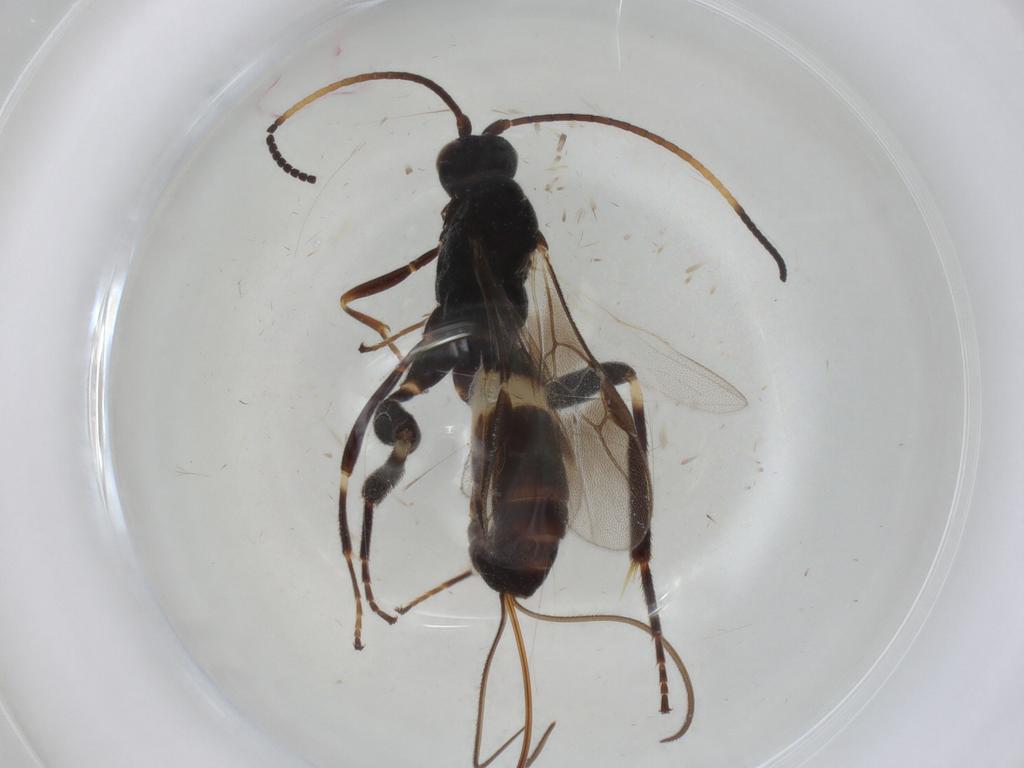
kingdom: Animalia
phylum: Arthropoda
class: Insecta
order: Hymenoptera
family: Braconidae
